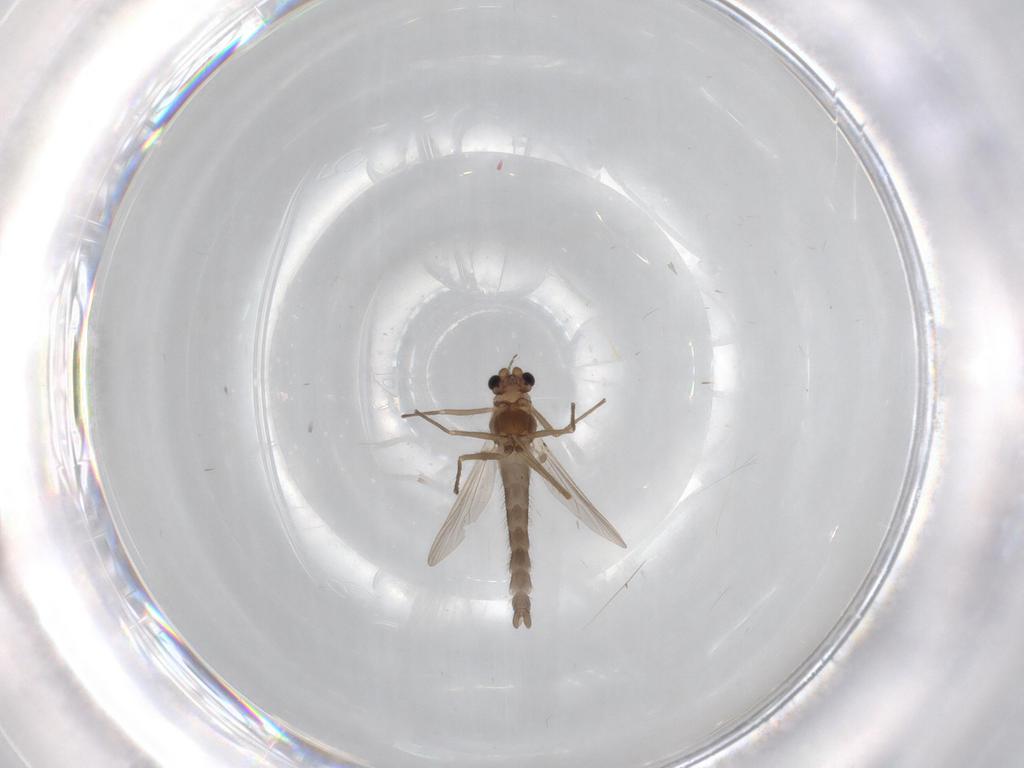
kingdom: Animalia
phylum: Arthropoda
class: Insecta
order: Diptera
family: Chironomidae
